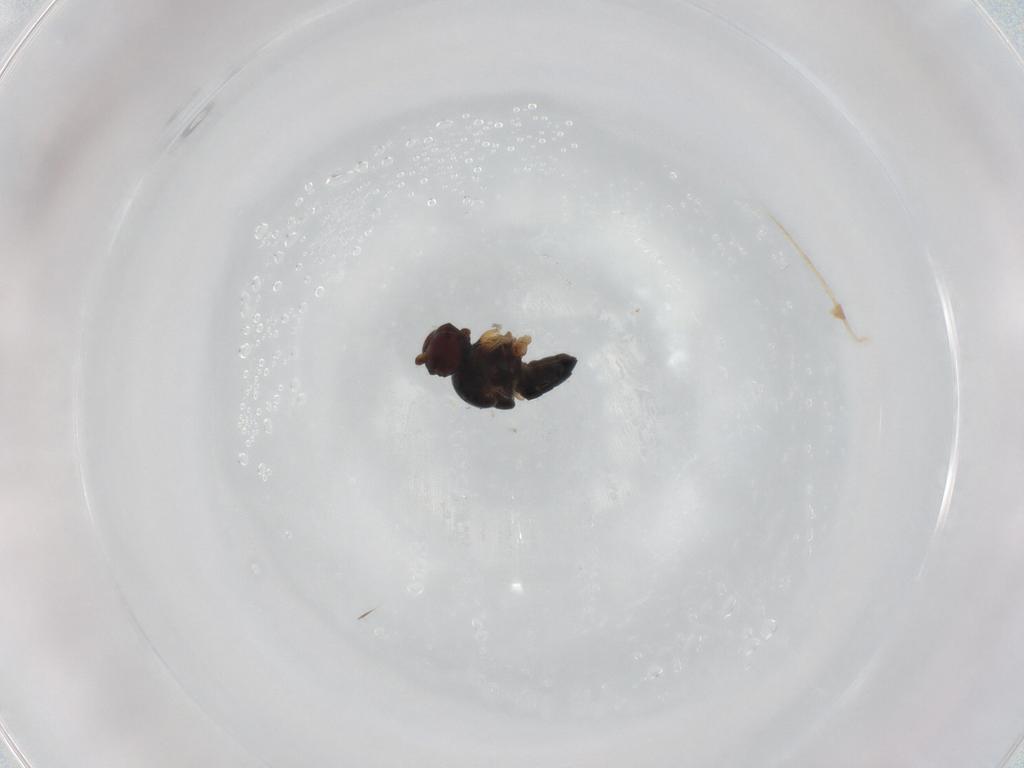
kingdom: Animalia
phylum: Arthropoda
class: Insecta
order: Diptera
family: Ephydridae
